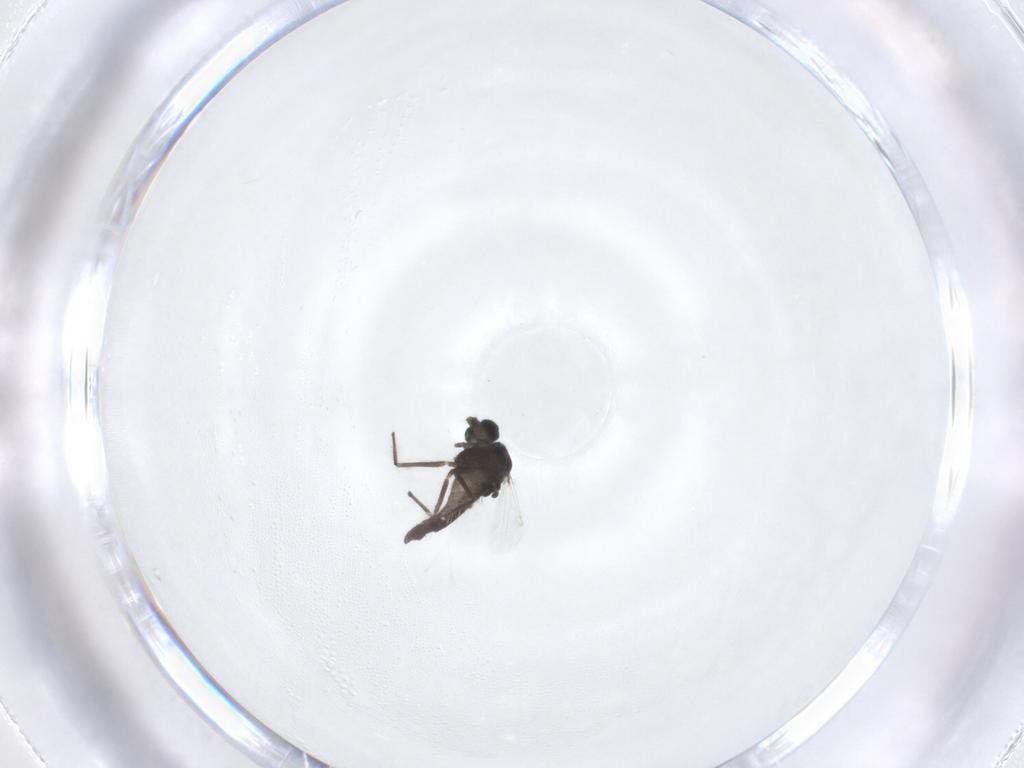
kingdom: Animalia
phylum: Arthropoda
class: Insecta
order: Diptera
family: Chironomidae
